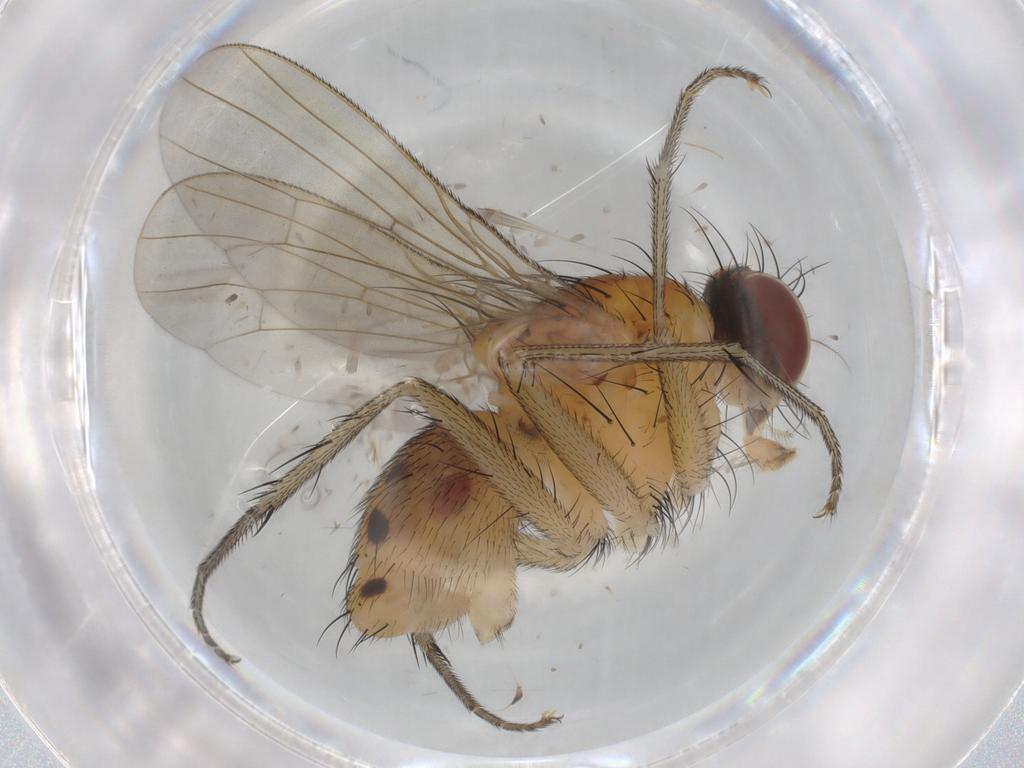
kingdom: Animalia
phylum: Arthropoda
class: Insecta
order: Diptera
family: Muscidae
